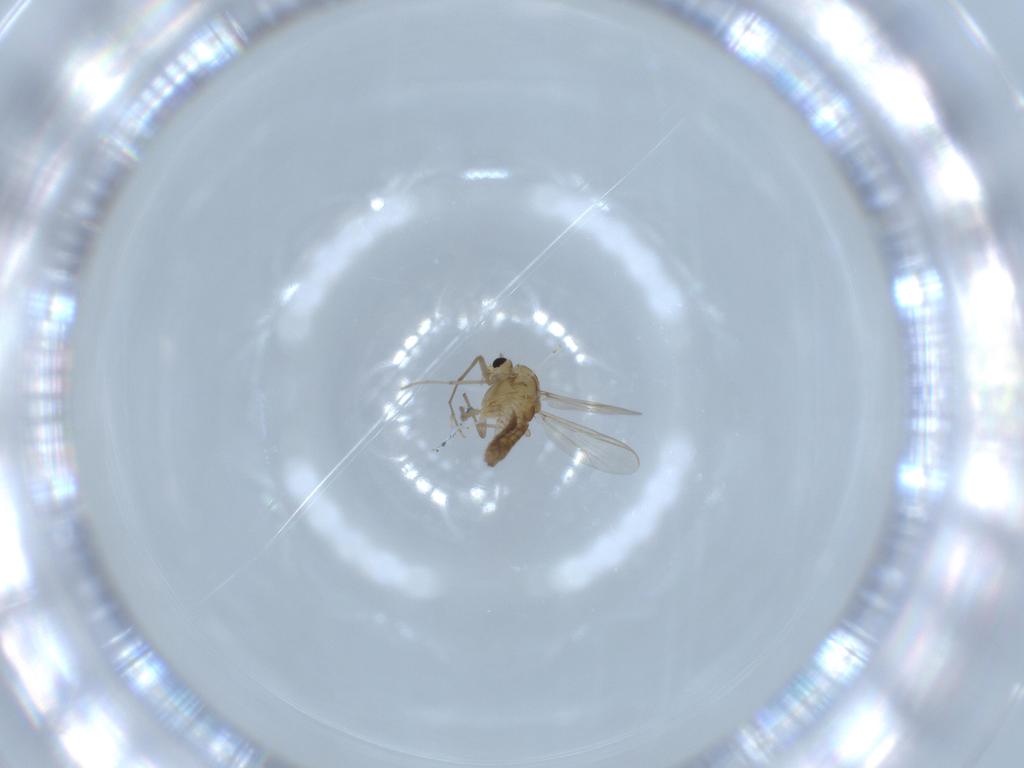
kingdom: Animalia
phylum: Arthropoda
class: Insecta
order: Diptera
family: Chironomidae
